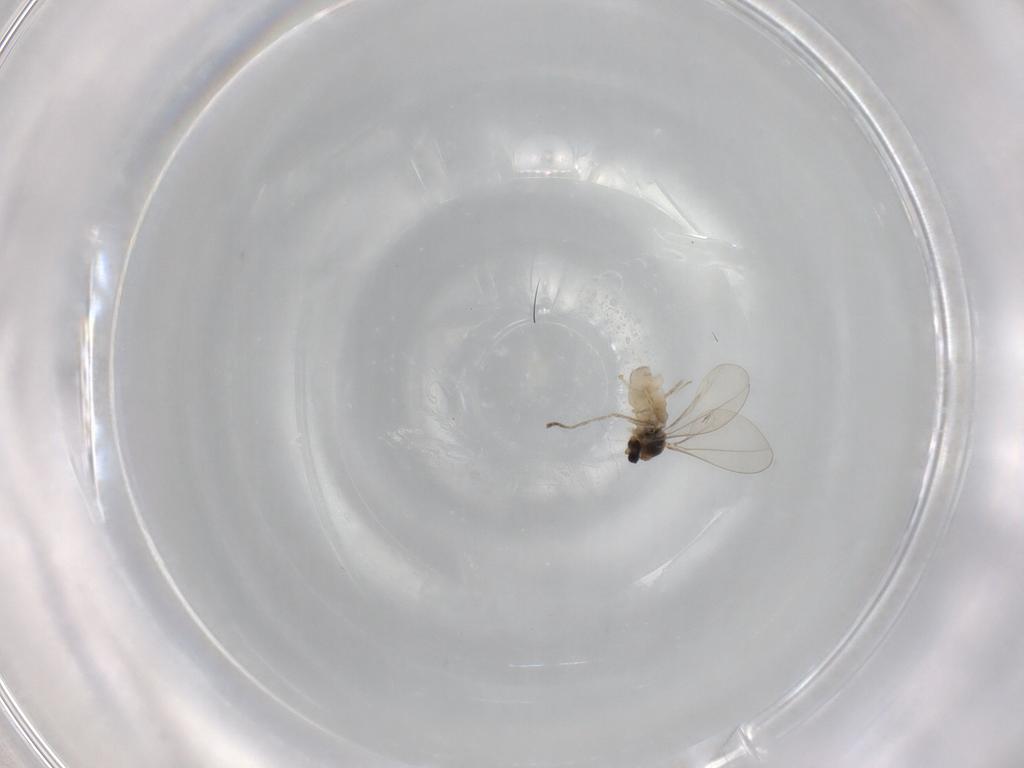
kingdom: Animalia
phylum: Arthropoda
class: Insecta
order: Diptera
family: Cecidomyiidae
